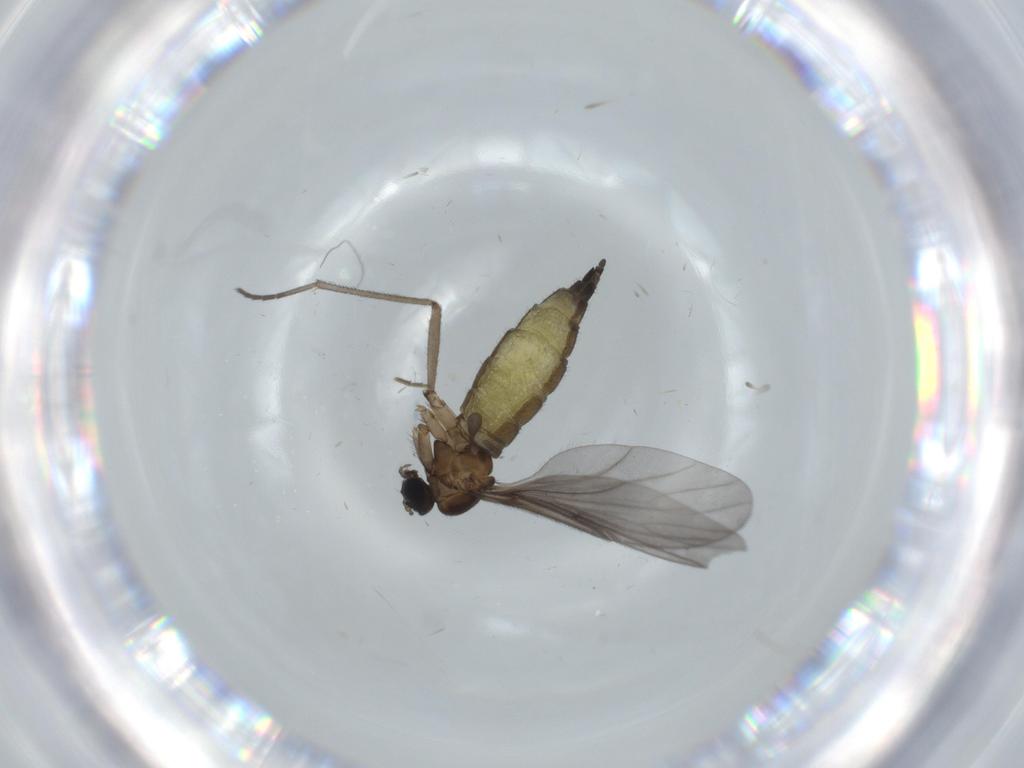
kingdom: Animalia
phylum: Arthropoda
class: Insecta
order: Diptera
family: Sciaridae
